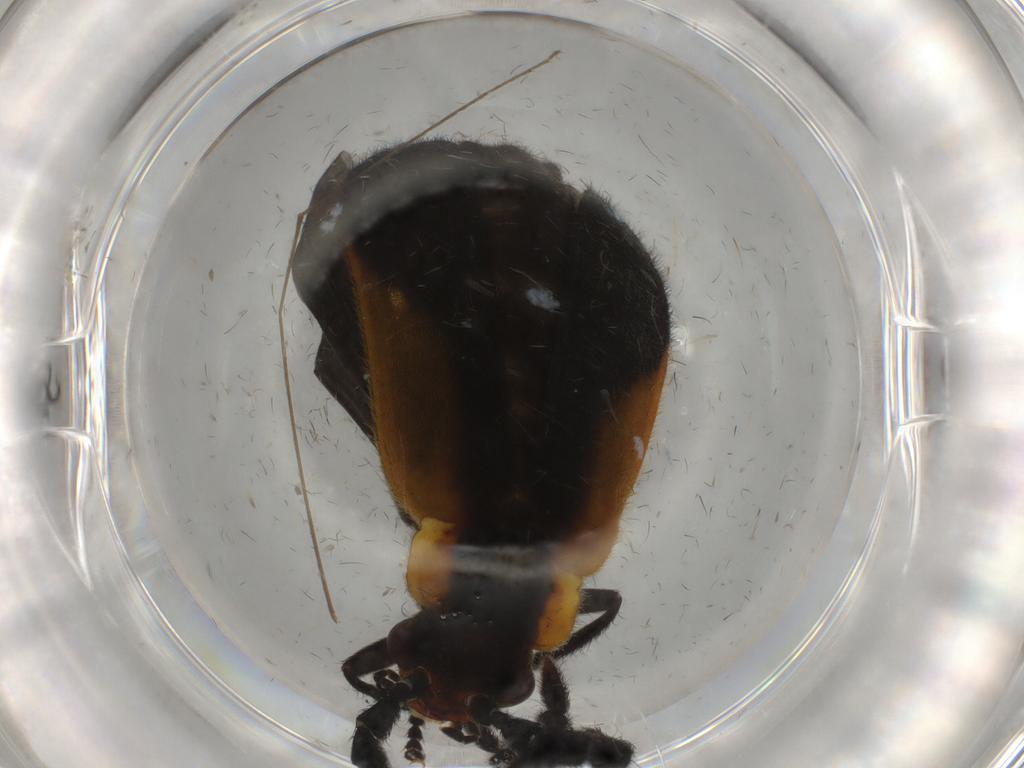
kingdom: Animalia
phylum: Arthropoda
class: Insecta
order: Coleoptera
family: Cantharidae
